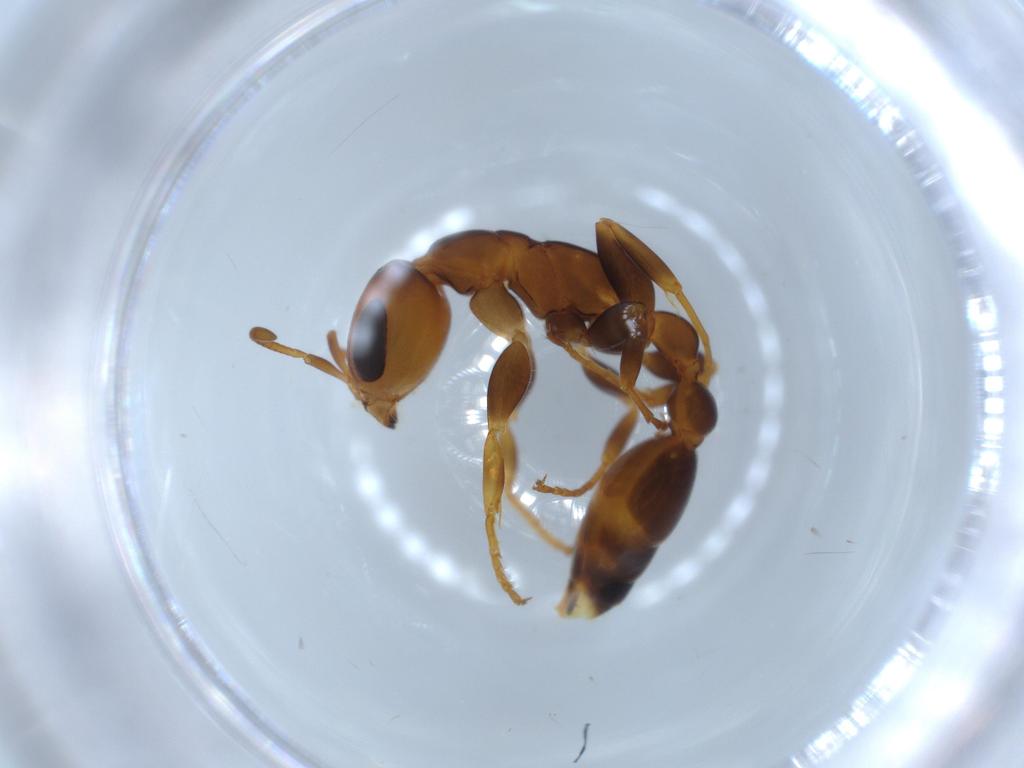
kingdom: Animalia
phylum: Arthropoda
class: Insecta
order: Hymenoptera
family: Formicidae
